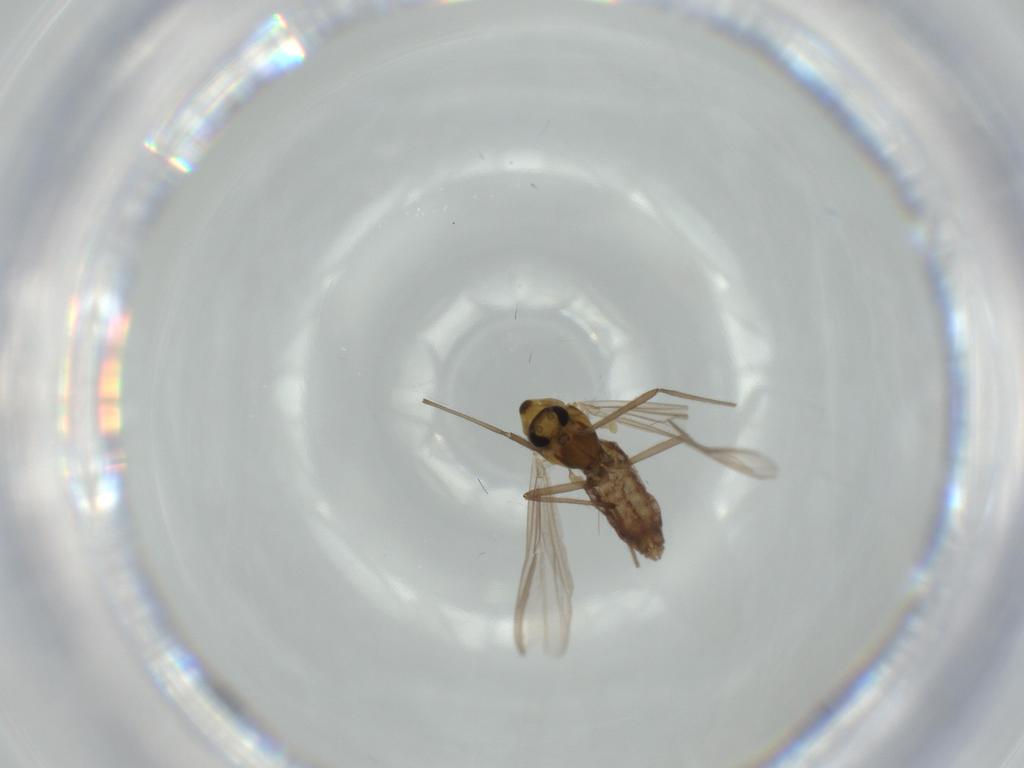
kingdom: Animalia
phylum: Arthropoda
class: Insecta
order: Diptera
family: Chironomidae
